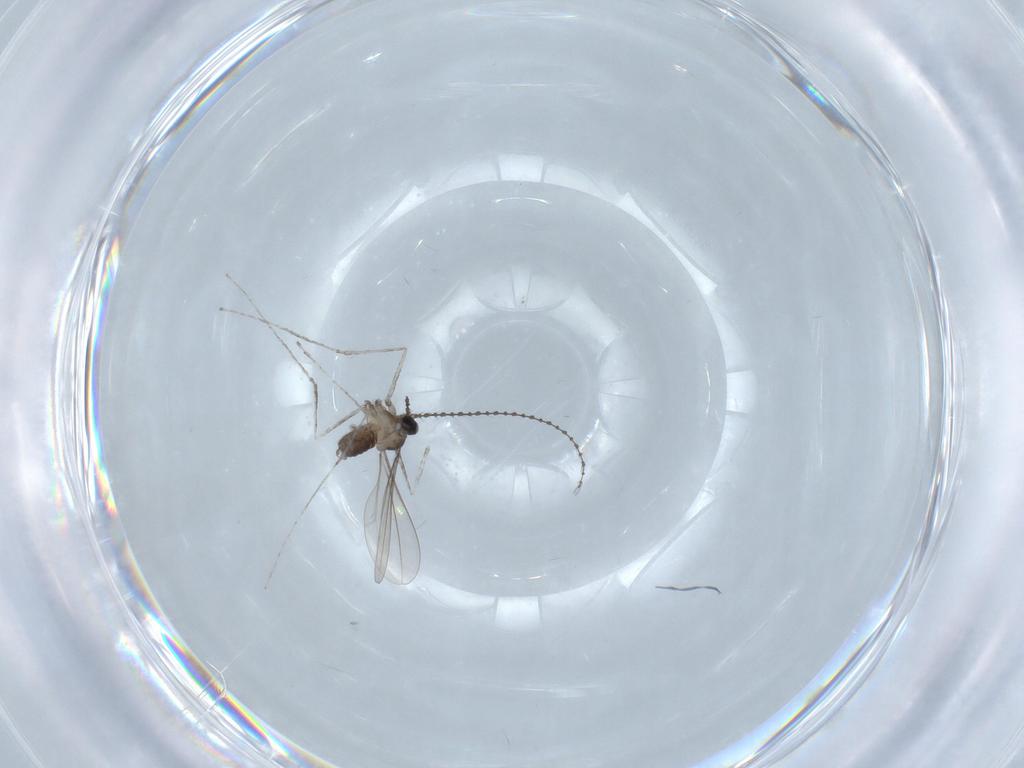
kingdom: Animalia
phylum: Arthropoda
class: Insecta
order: Diptera
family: Cecidomyiidae
